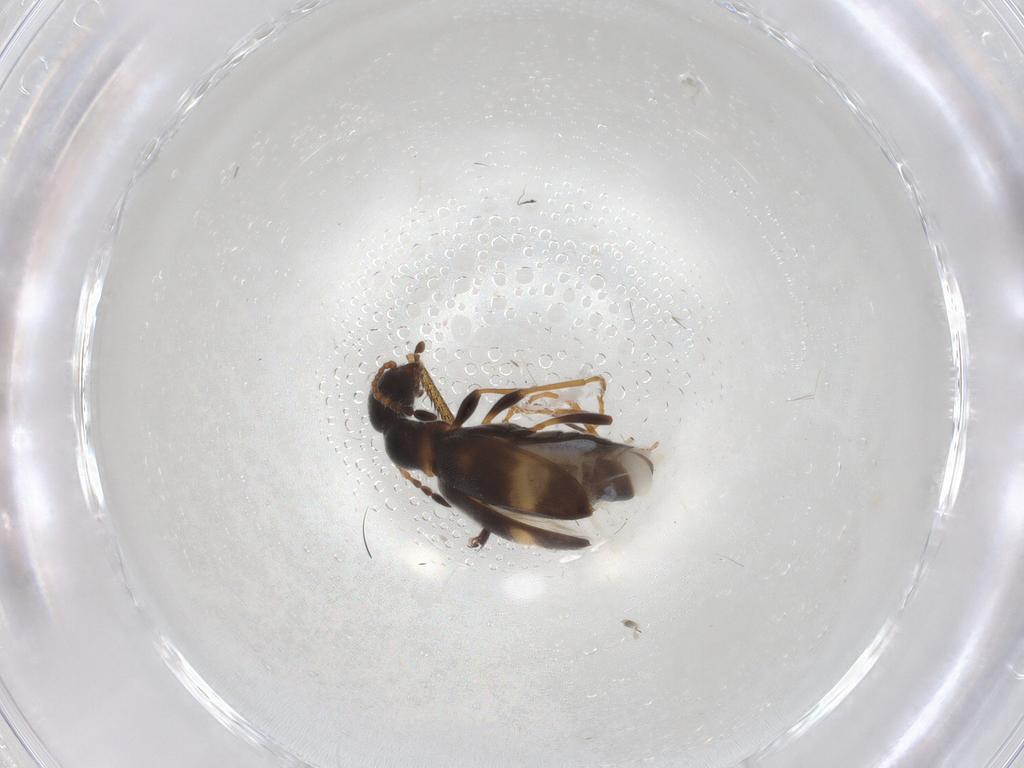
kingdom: Animalia
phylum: Arthropoda
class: Insecta
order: Coleoptera
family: Anthicidae
